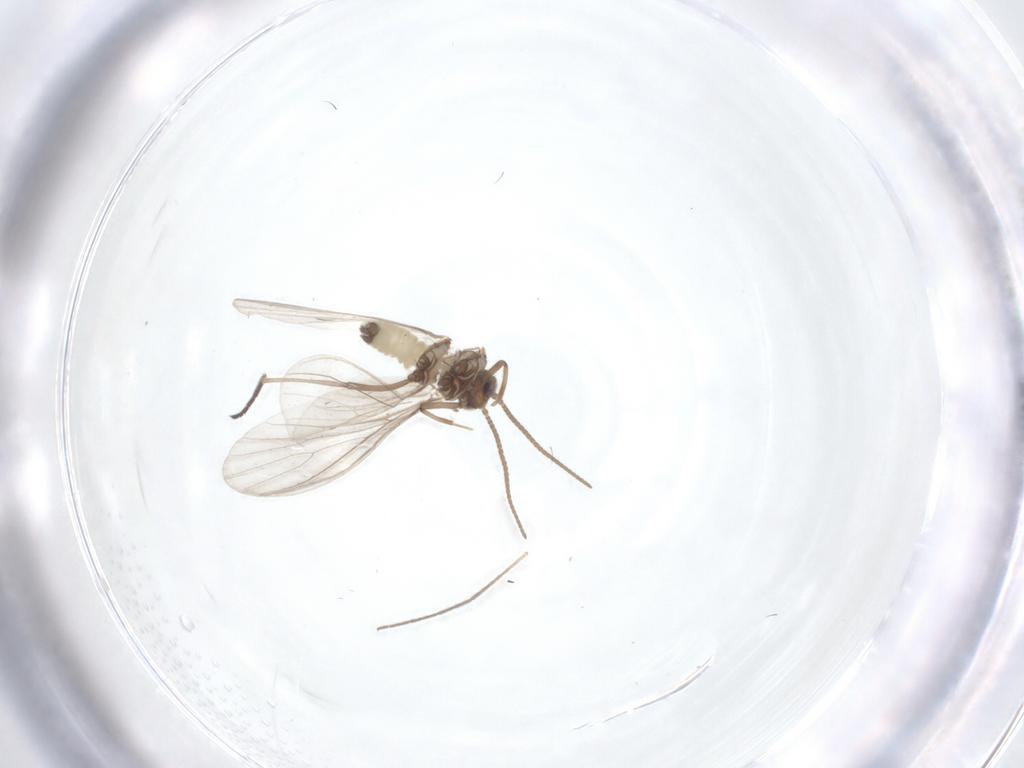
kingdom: Animalia
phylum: Arthropoda
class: Insecta
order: Neuroptera
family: Coniopterygidae
